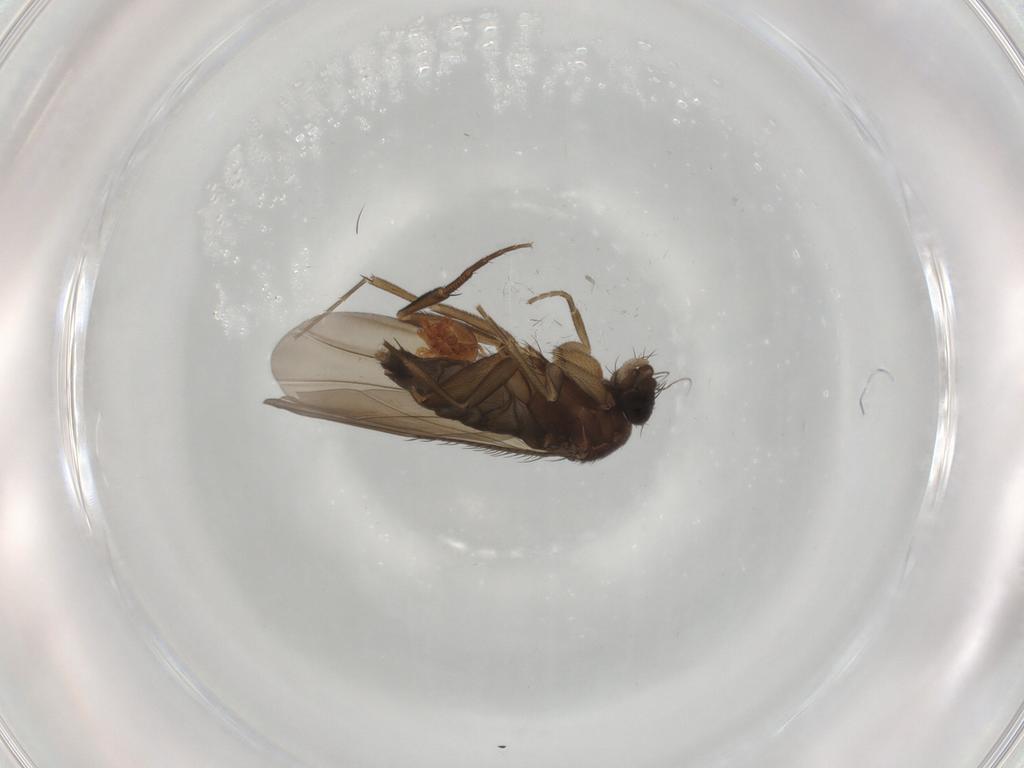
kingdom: Animalia
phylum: Arthropoda
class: Insecta
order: Diptera
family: Phoridae
